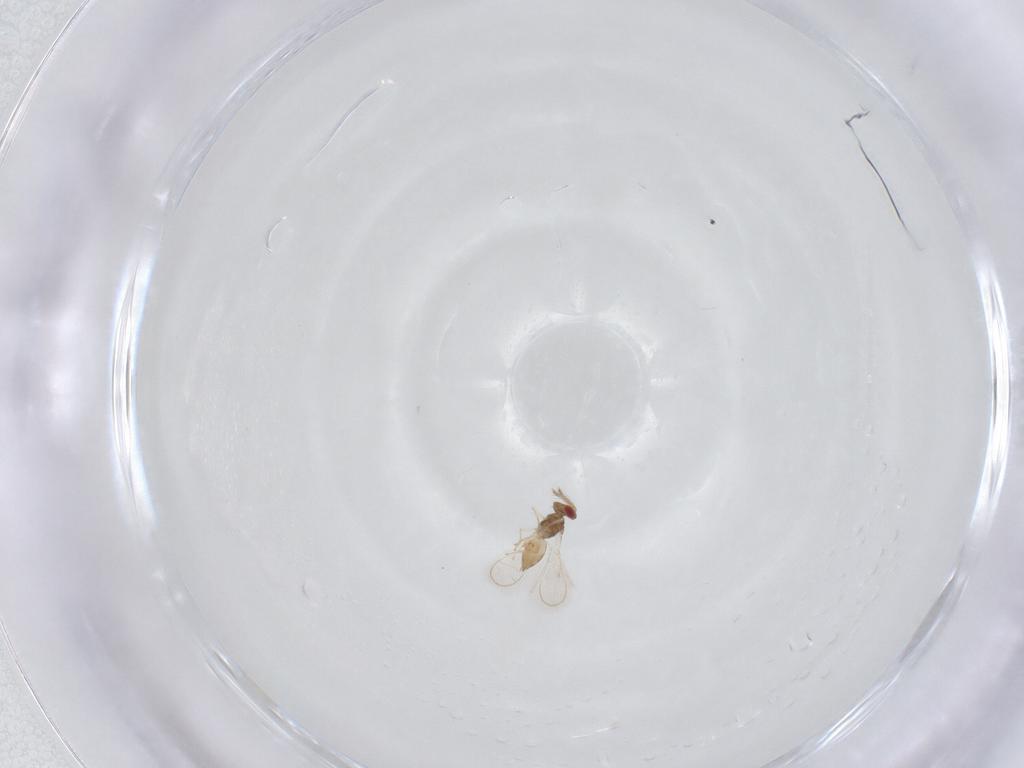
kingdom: Animalia
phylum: Arthropoda
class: Insecta
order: Hymenoptera
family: Eulophidae
